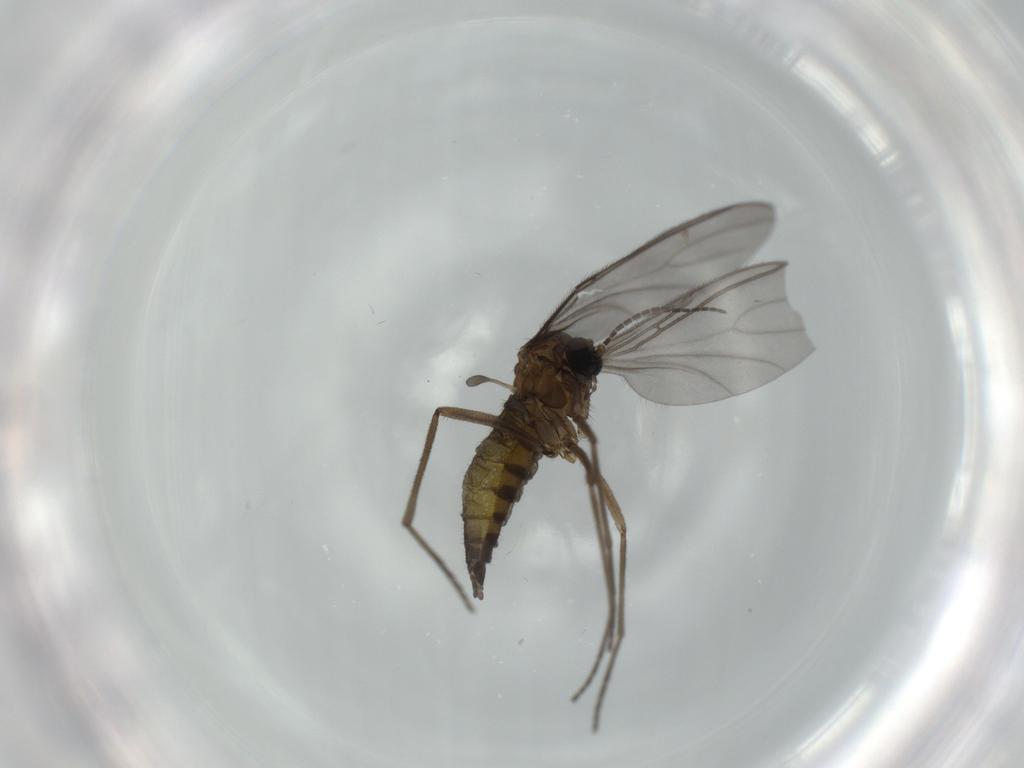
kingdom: Animalia
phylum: Arthropoda
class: Insecta
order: Diptera
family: Sciaridae
